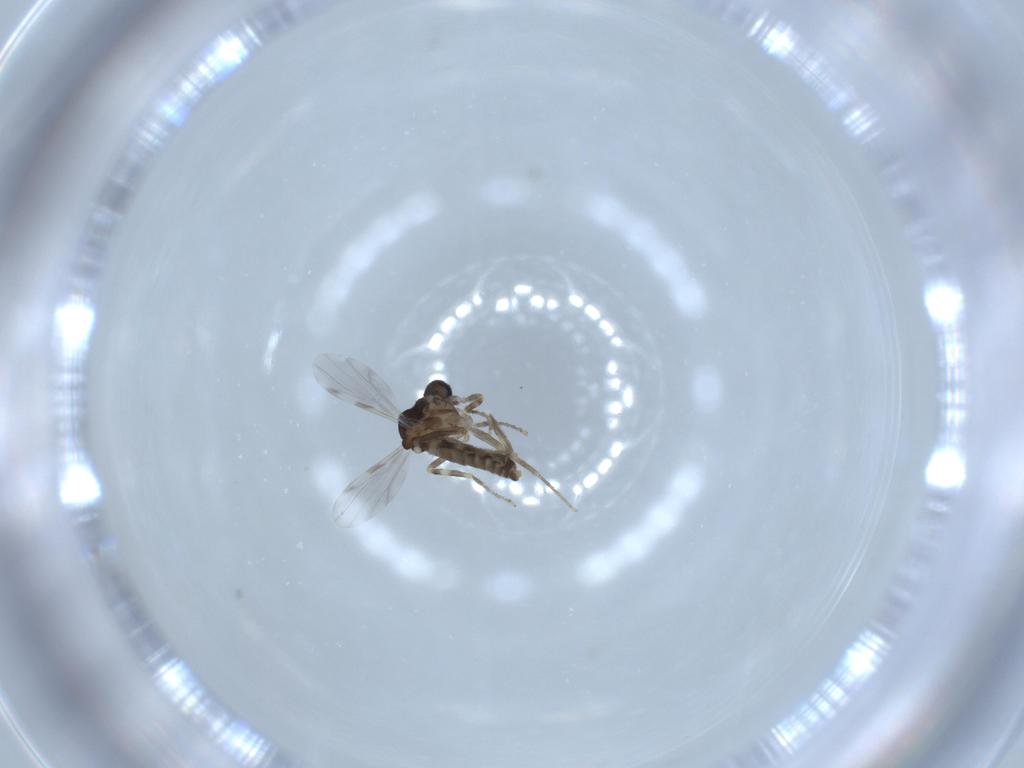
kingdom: Animalia
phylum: Arthropoda
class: Insecta
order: Diptera
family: Ceratopogonidae
